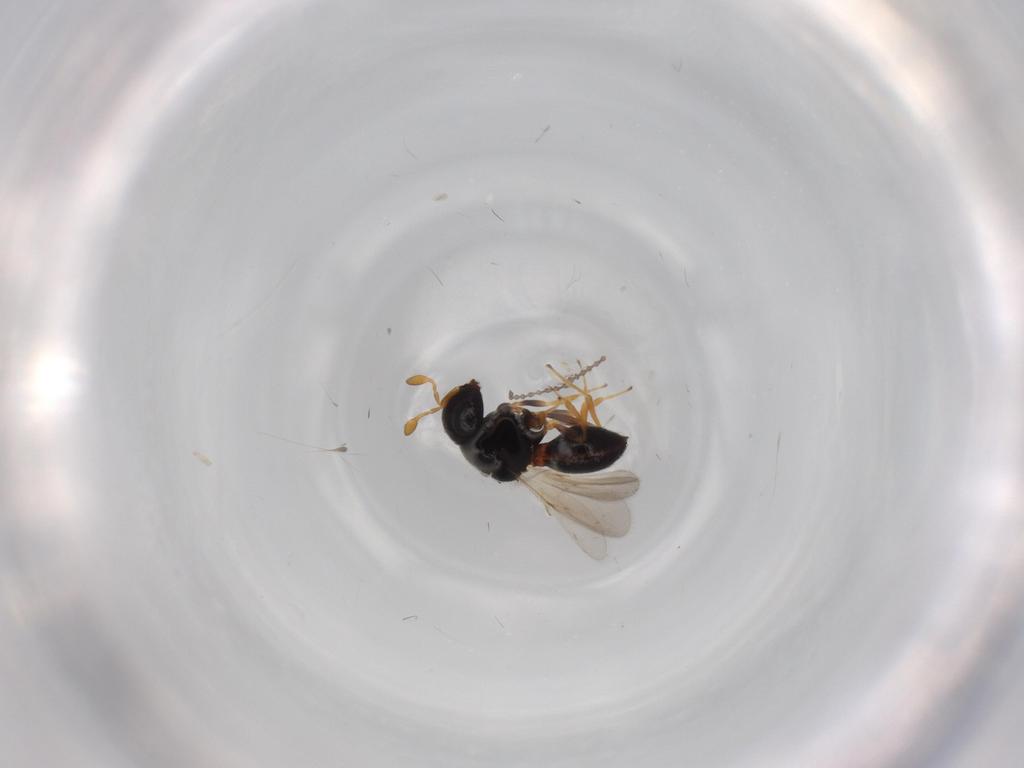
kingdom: Animalia
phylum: Arthropoda
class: Insecta
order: Hymenoptera
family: Scelionidae
